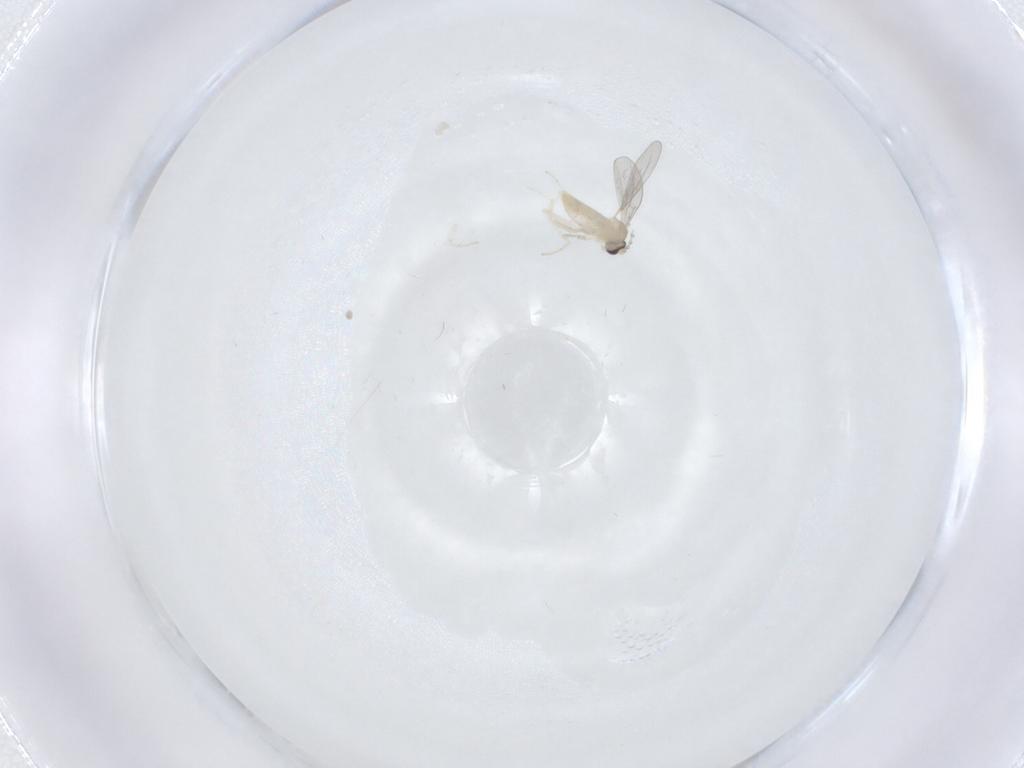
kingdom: Animalia
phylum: Arthropoda
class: Insecta
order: Diptera
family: Cecidomyiidae
